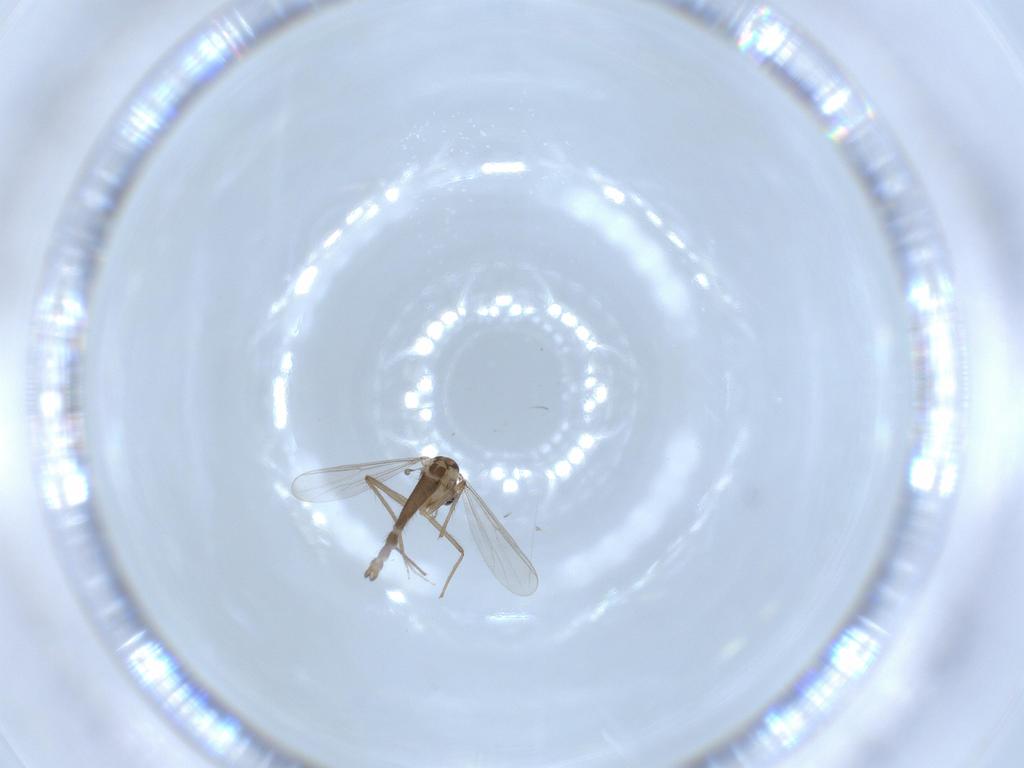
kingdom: Animalia
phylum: Arthropoda
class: Insecta
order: Diptera
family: Chironomidae
